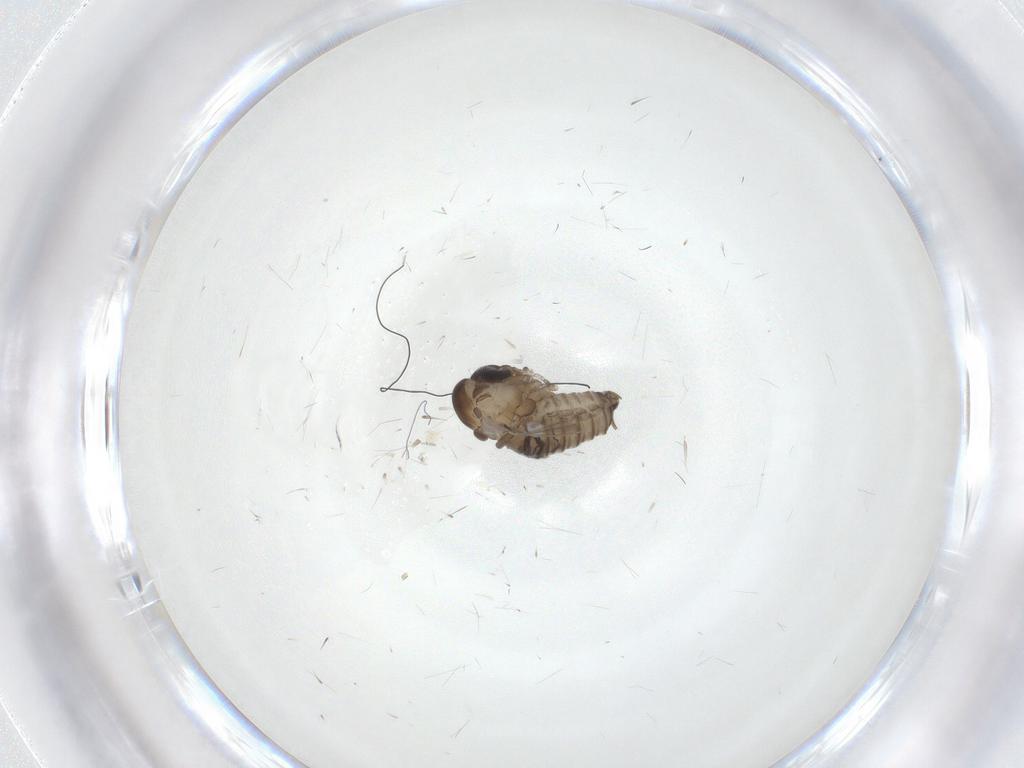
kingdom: Animalia
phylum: Arthropoda
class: Insecta
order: Diptera
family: Psychodidae
